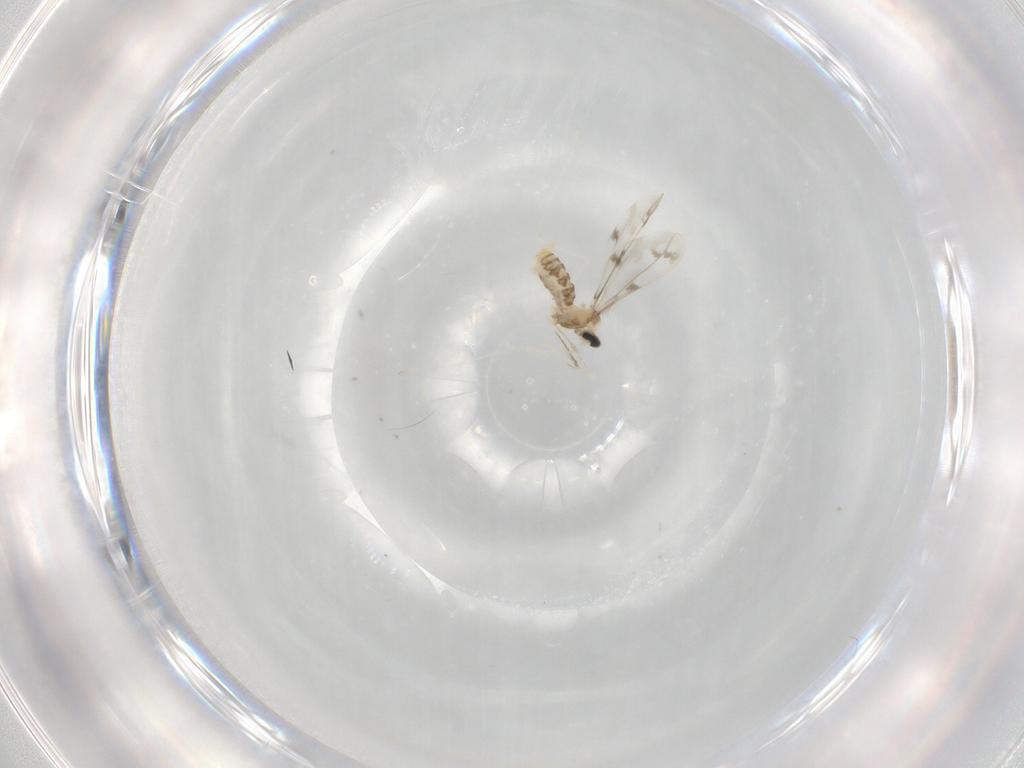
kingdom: Animalia
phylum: Arthropoda
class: Insecta
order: Diptera
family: Cecidomyiidae
